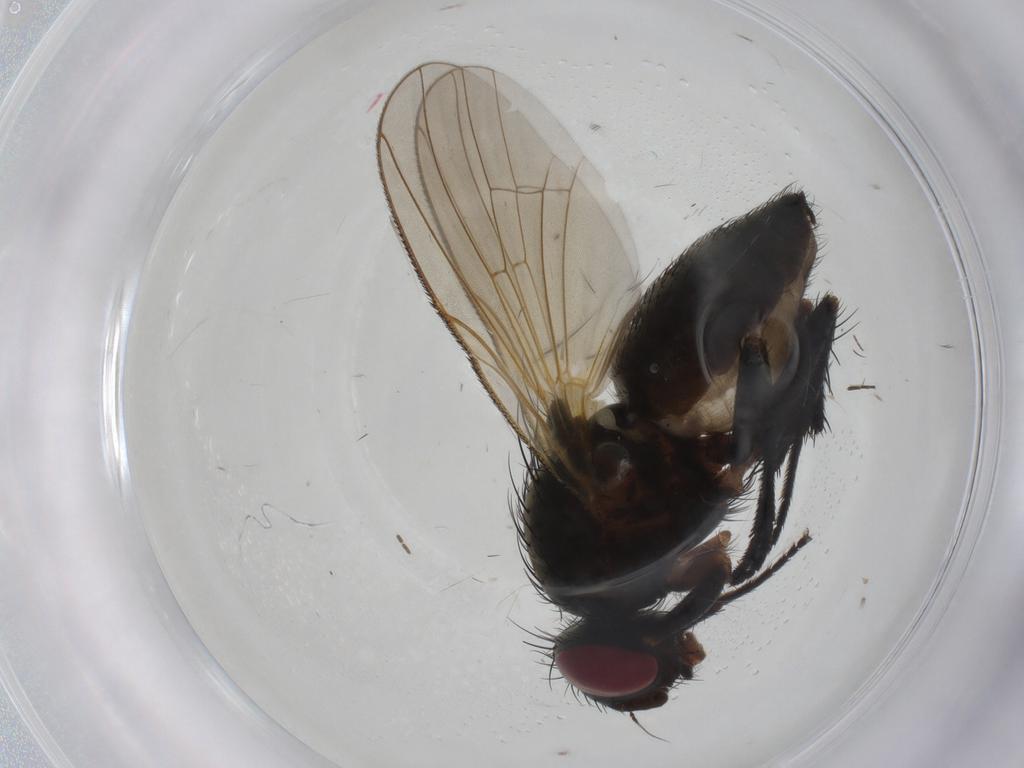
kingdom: Animalia
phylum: Arthropoda
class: Insecta
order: Diptera
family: Anthomyiidae
